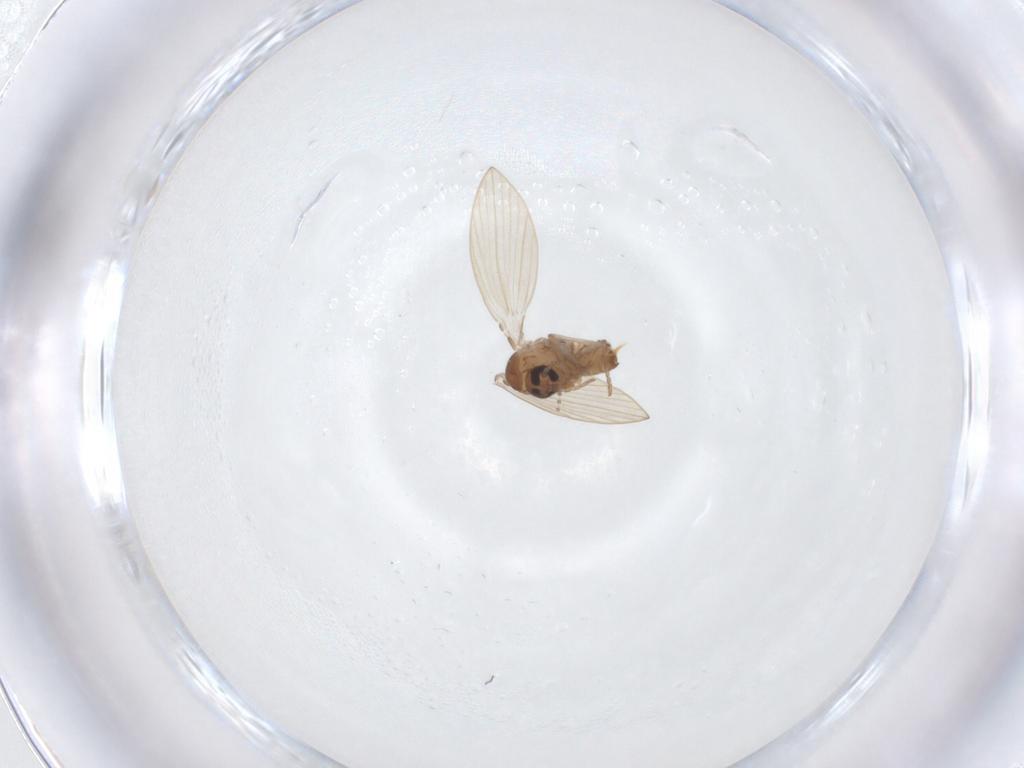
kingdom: Animalia
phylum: Arthropoda
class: Insecta
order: Diptera
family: Psychodidae
